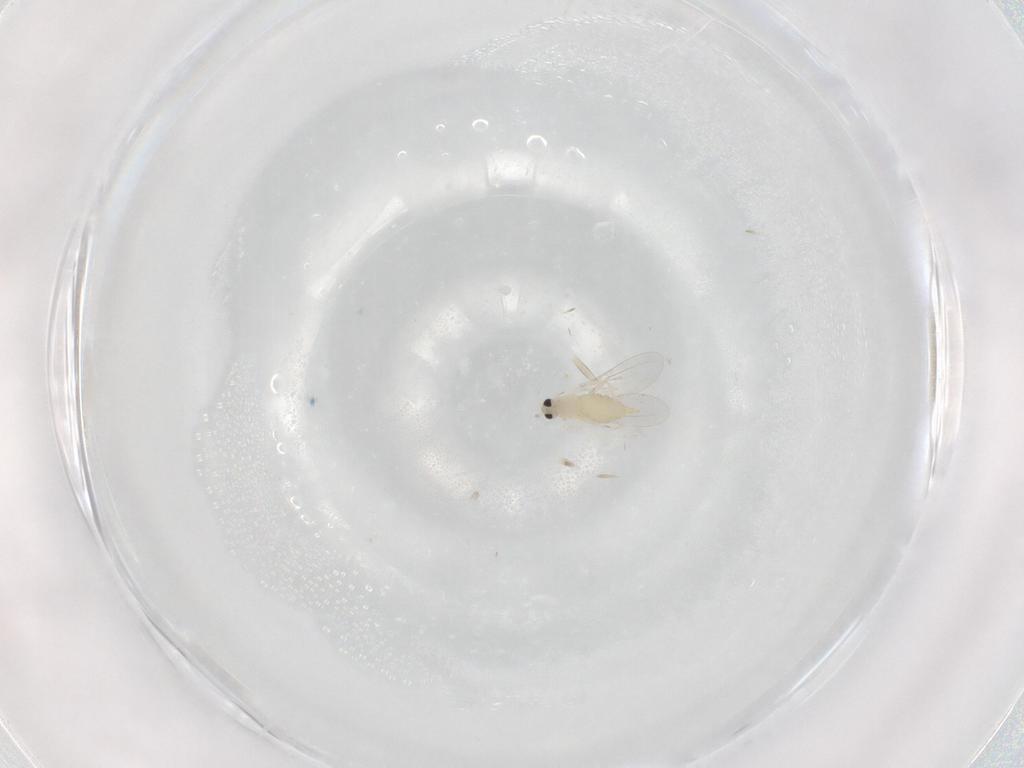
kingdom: Animalia
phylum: Arthropoda
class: Insecta
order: Diptera
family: Cecidomyiidae
